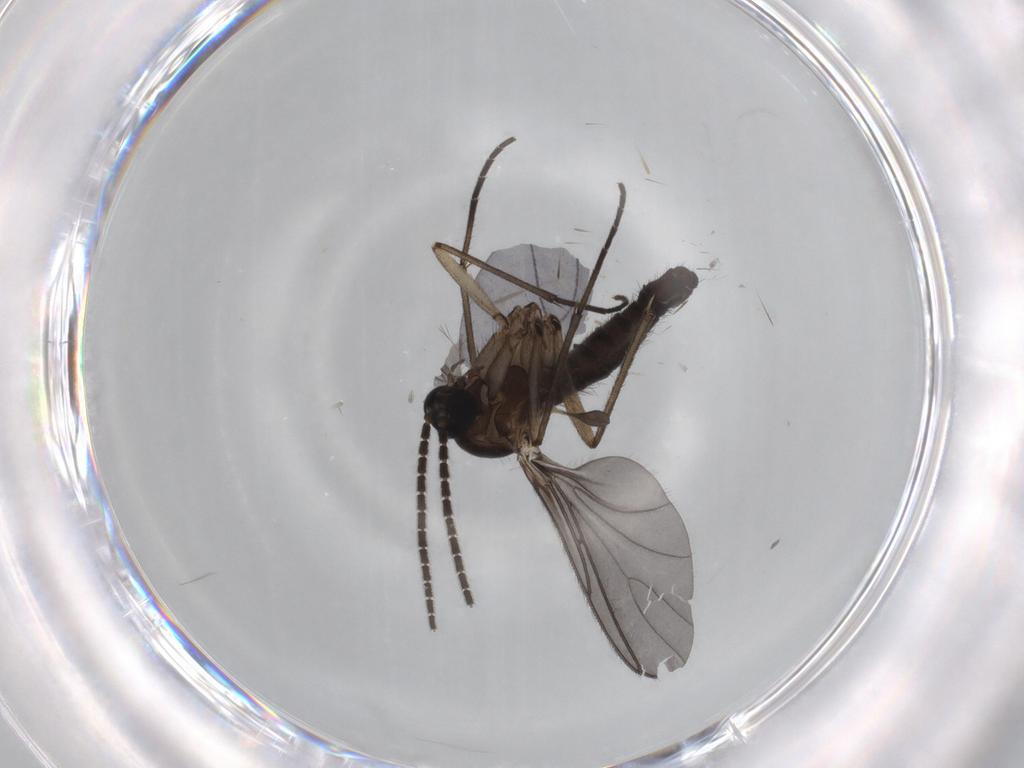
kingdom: Animalia
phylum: Arthropoda
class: Insecta
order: Diptera
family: Sciaridae
